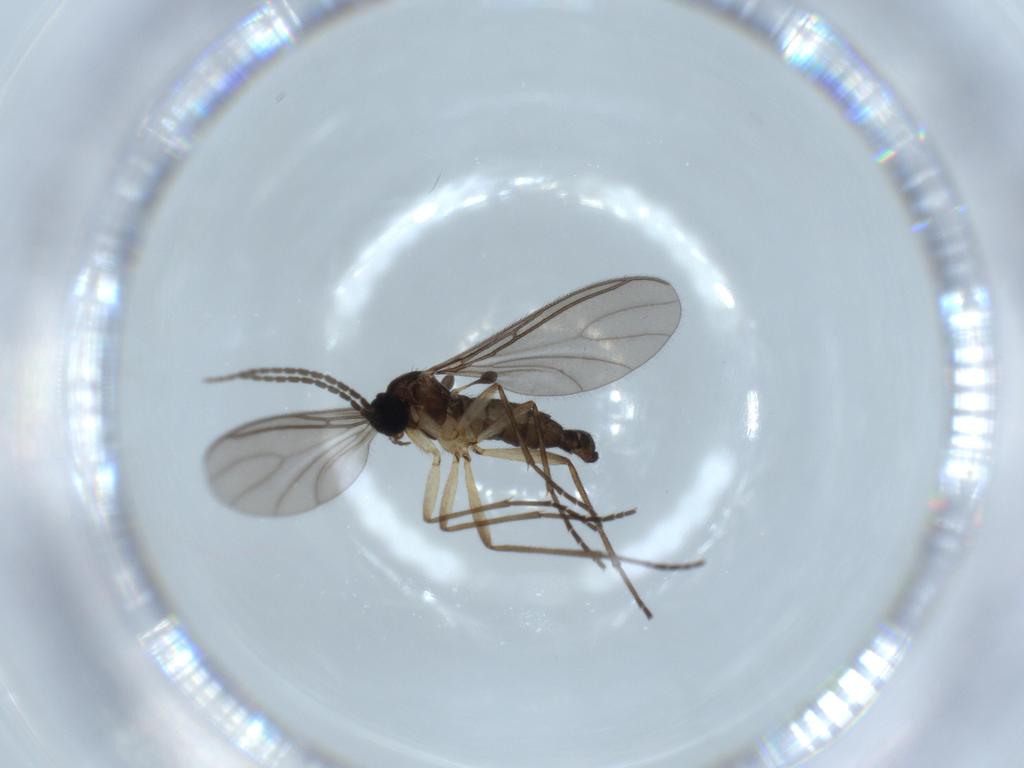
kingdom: Animalia
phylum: Arthropoda
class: Insecta
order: Diptera
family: Sciaridae
